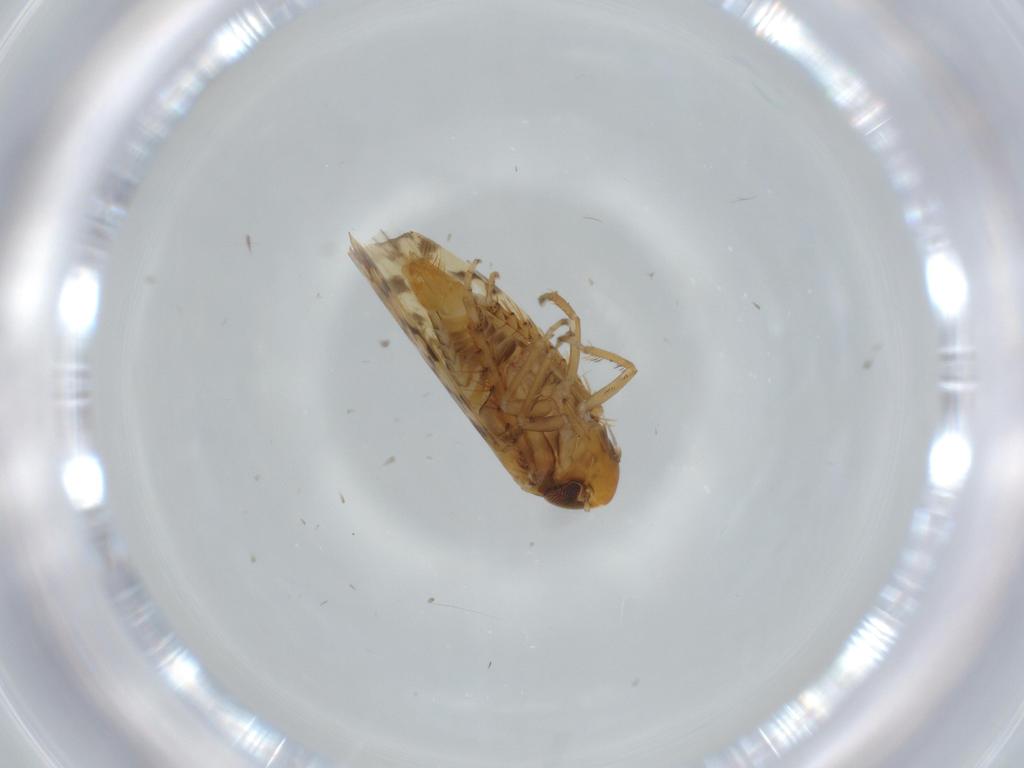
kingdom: Animalia
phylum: Arthropoda
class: Insecta
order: Hemiptera
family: Cicadellidae
